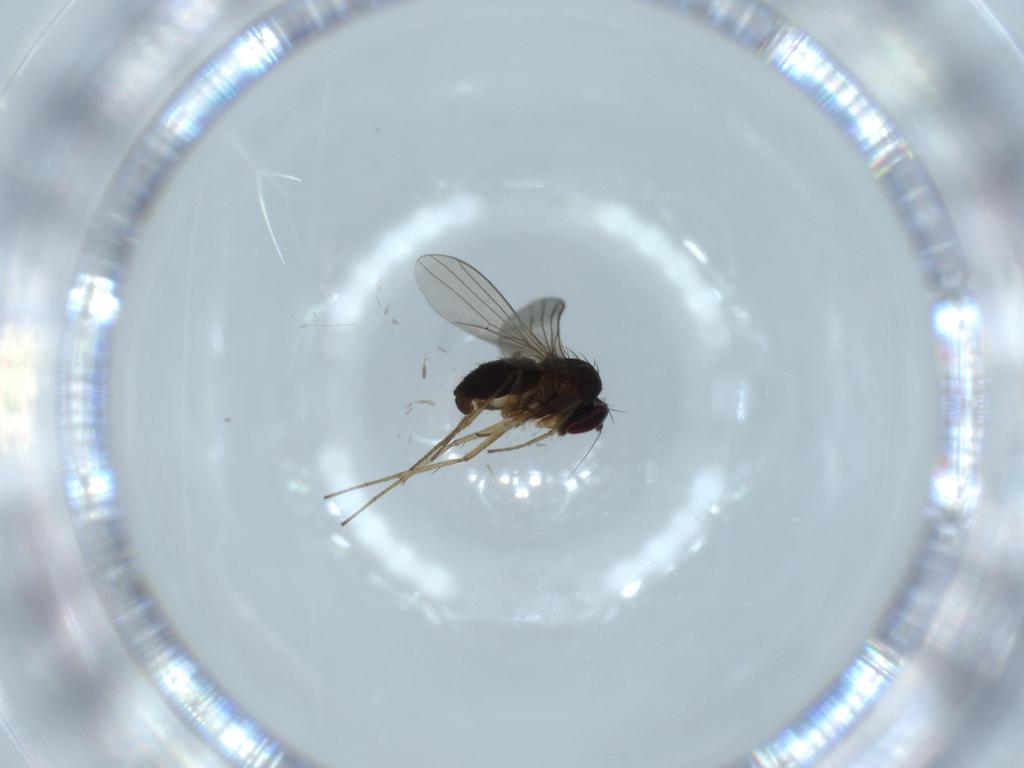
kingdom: Animalia
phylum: Arthropoda
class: Insecta
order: Diptera
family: Dolichopodidae
